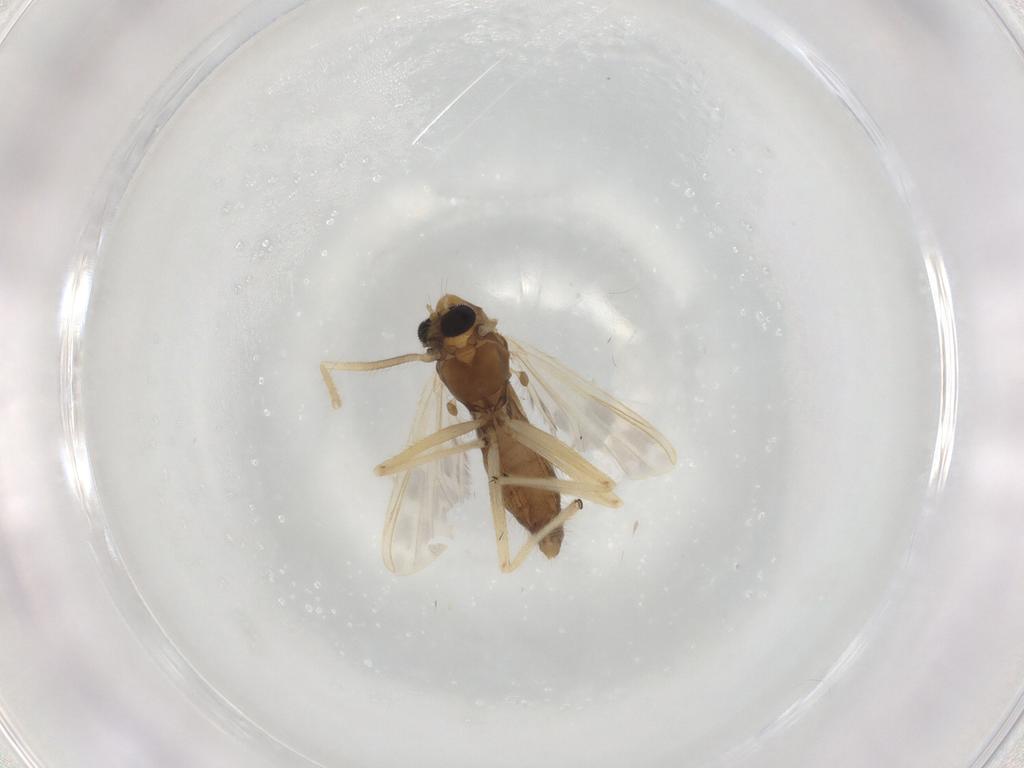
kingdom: Animalia
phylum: Arthropoda
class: Insecta
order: Diptera
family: Chironomidae
